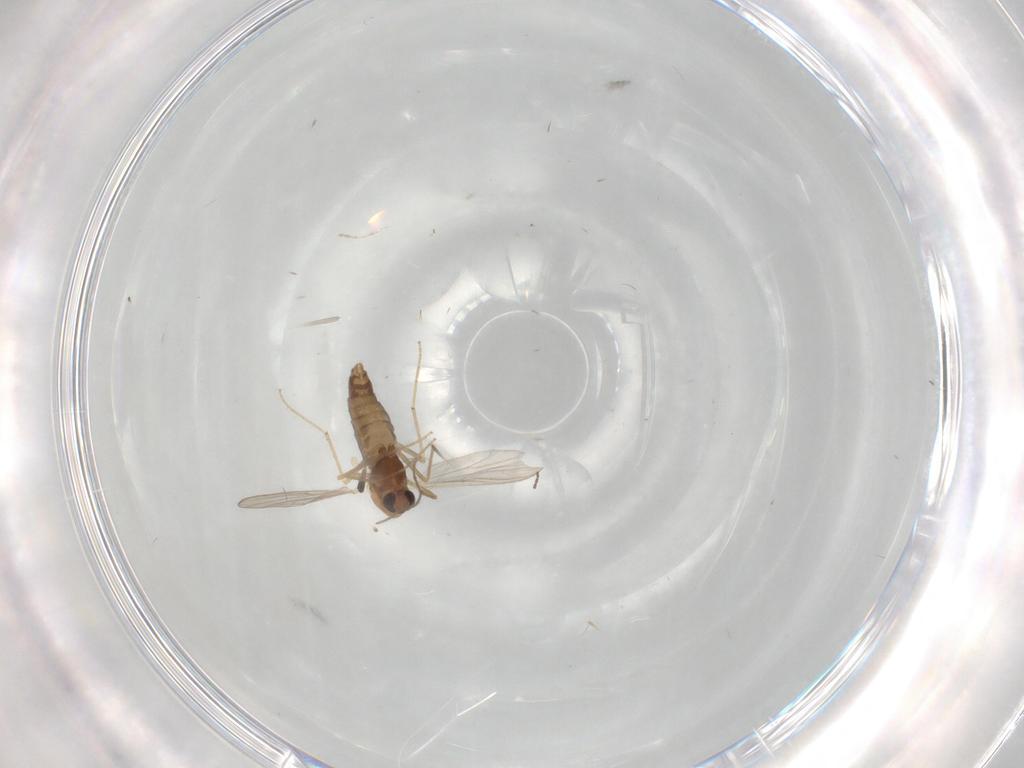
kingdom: Animalia
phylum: Arthropoda
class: Insecta
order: Diptera
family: Chironomidae
